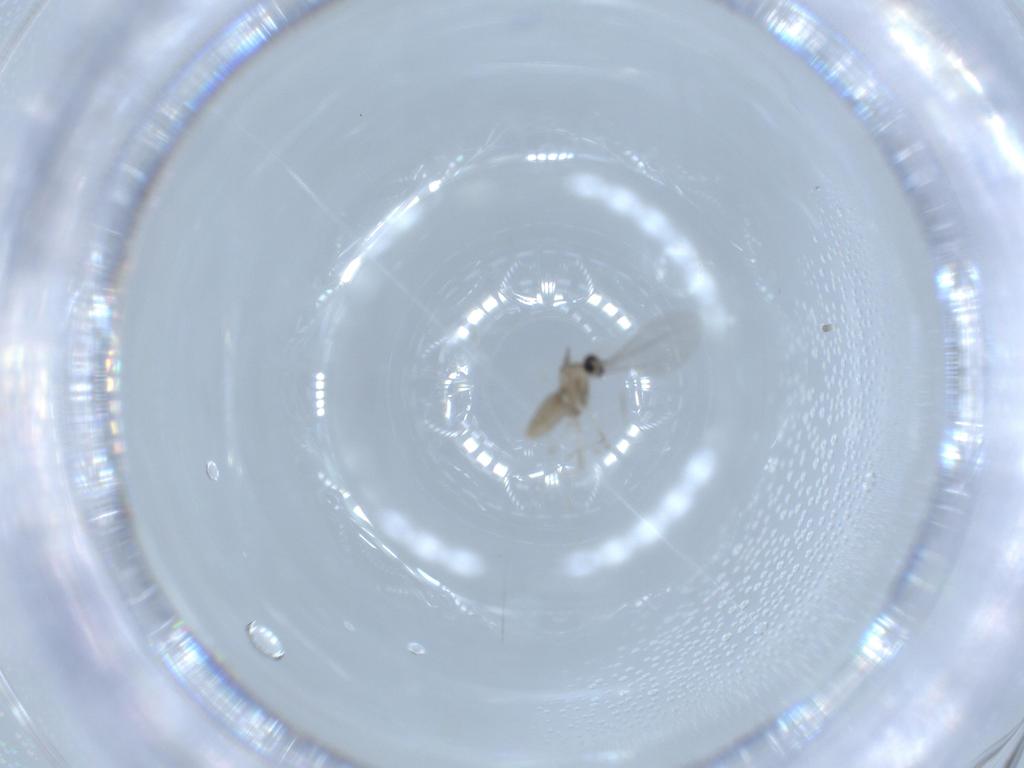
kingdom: Animalia
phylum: Arthropoda
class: Insecta
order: Diptera
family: Cecidomyiidae
